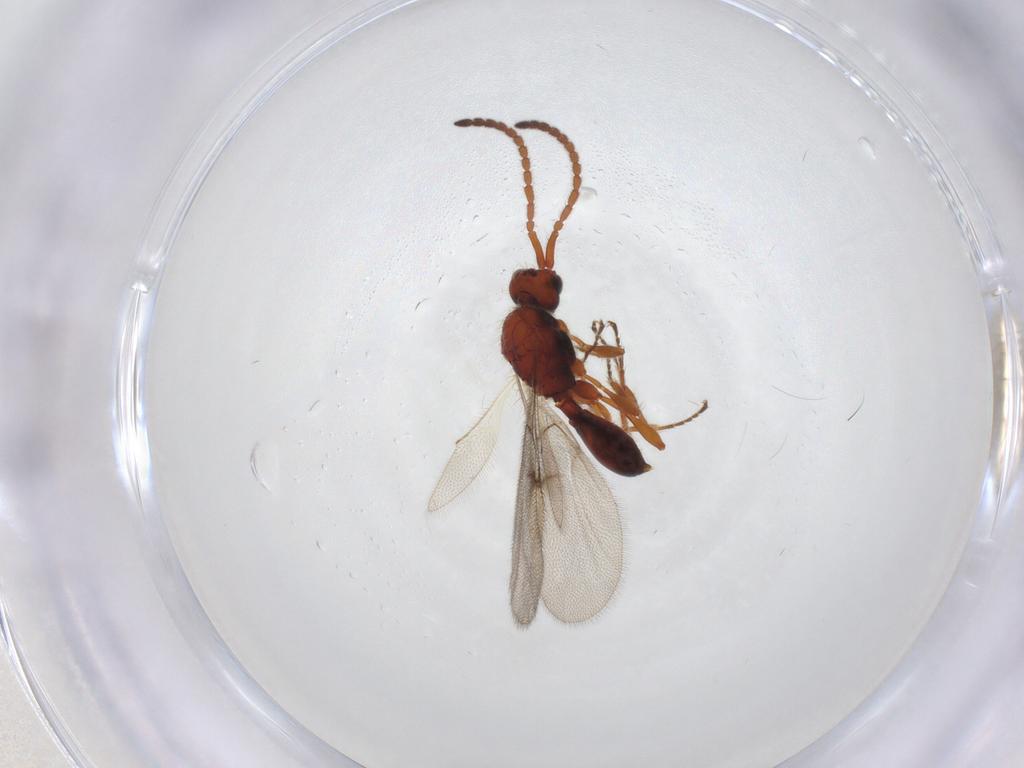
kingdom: Animalia
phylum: Arthropoda
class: Insecta
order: Hymenoptera
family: Diapriidae
